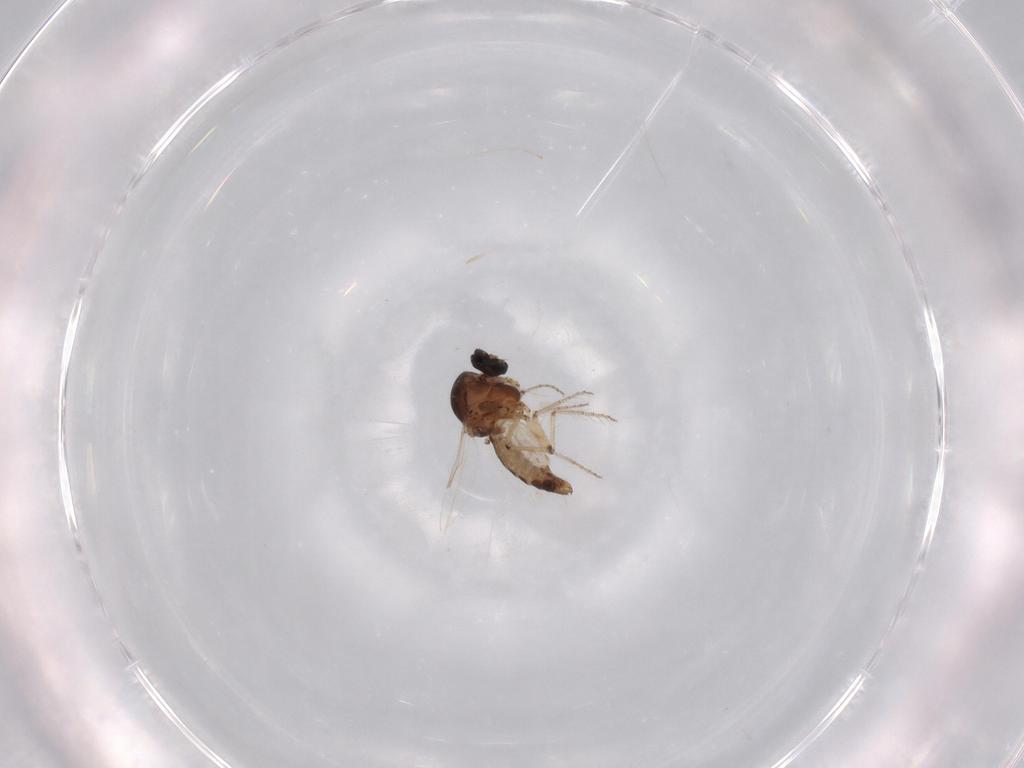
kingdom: Animalia
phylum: Arthropoda
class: Insecta
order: Diptera
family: Ceratopogonidae
